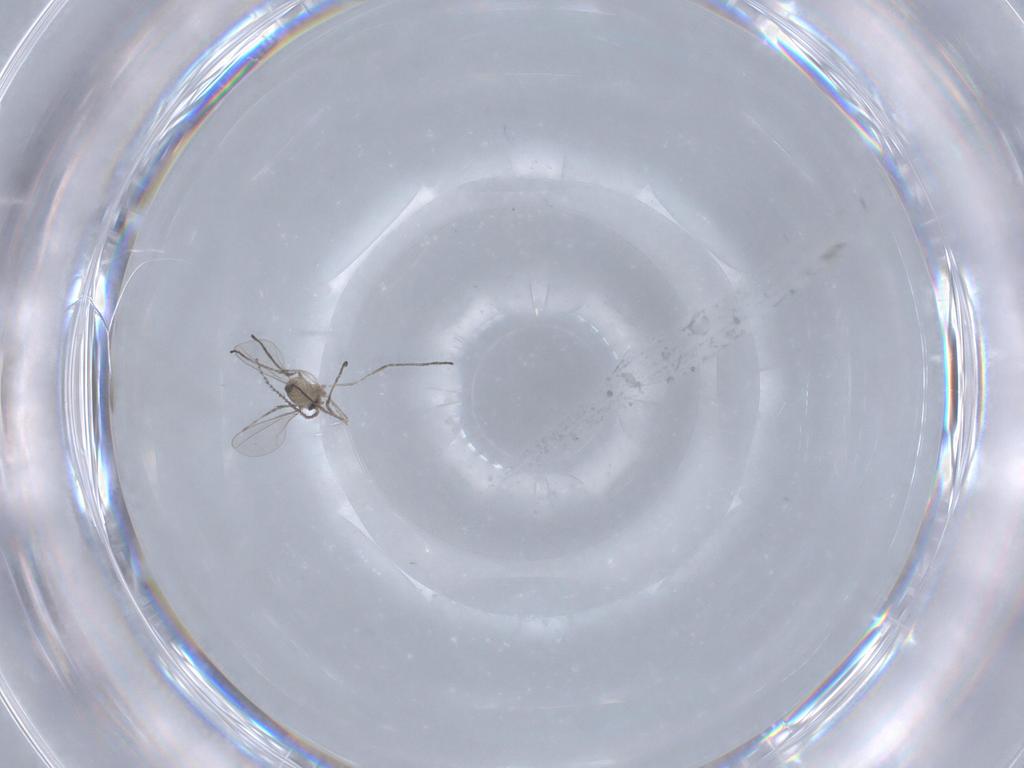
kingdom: Animalia
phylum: Arthropoda
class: Insecta
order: Diptera
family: Cecidomyiidae
